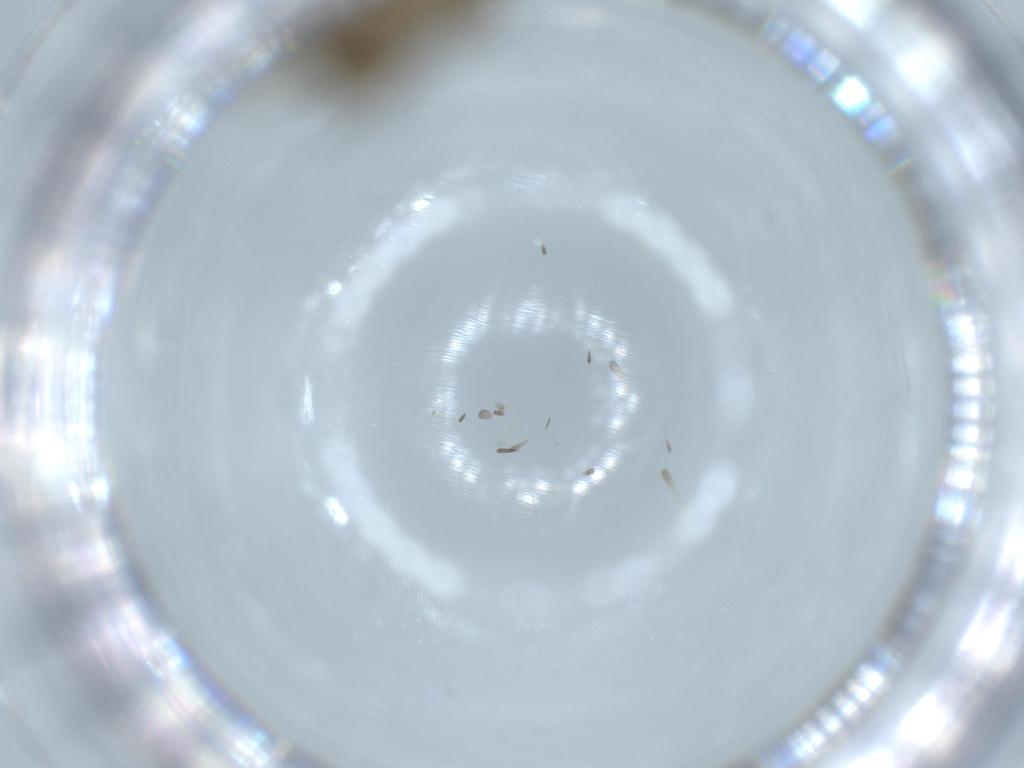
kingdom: Animalia
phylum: Arthropoda
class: Insecta
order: Diptera
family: Phoridae
